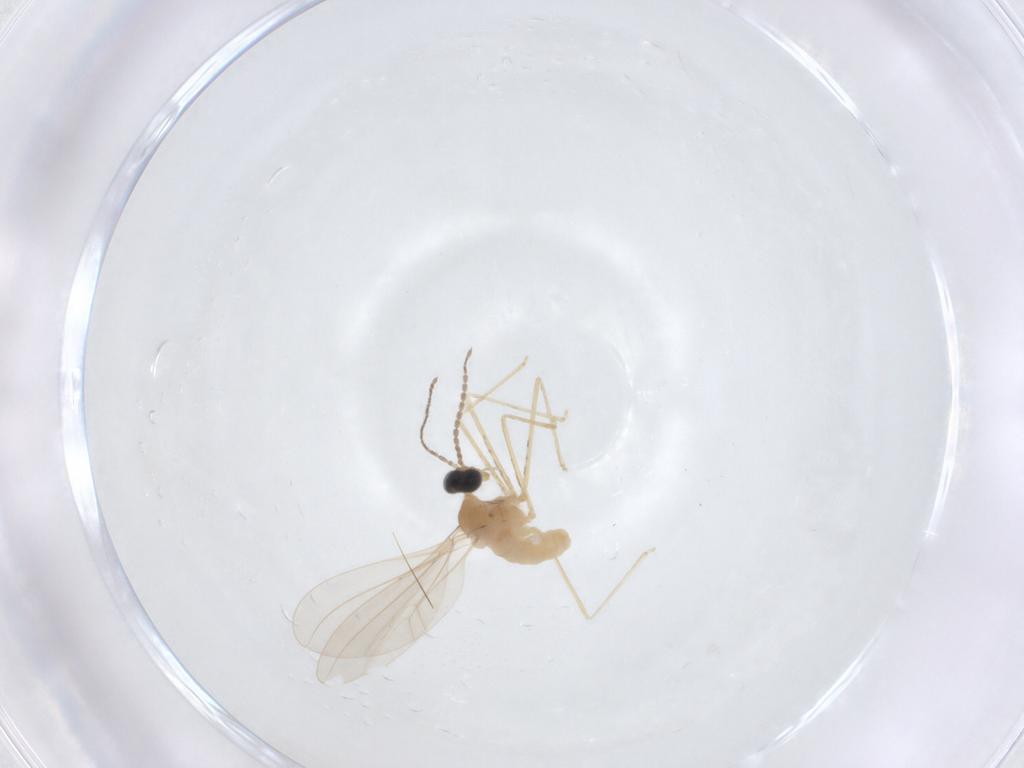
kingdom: Animalia
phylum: Arthropoda
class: Insecta
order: Diptera
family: Cecidomyiidae
